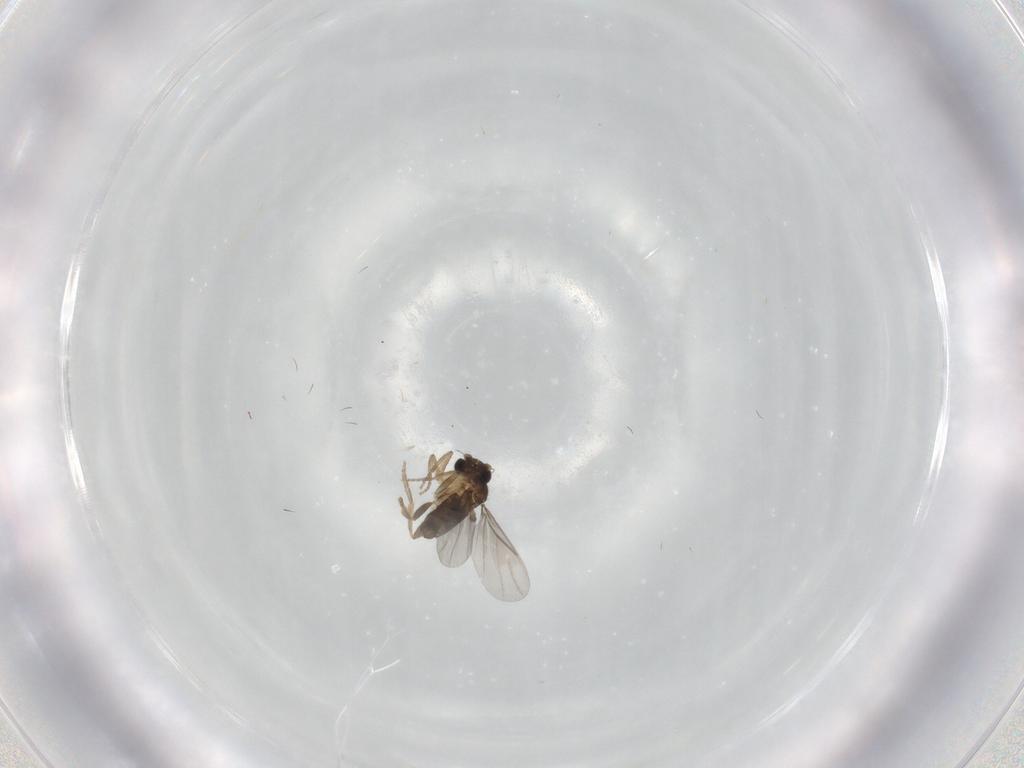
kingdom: Animalia
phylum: Arthropoda
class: Insecta
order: Diptera
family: Milichiidae
